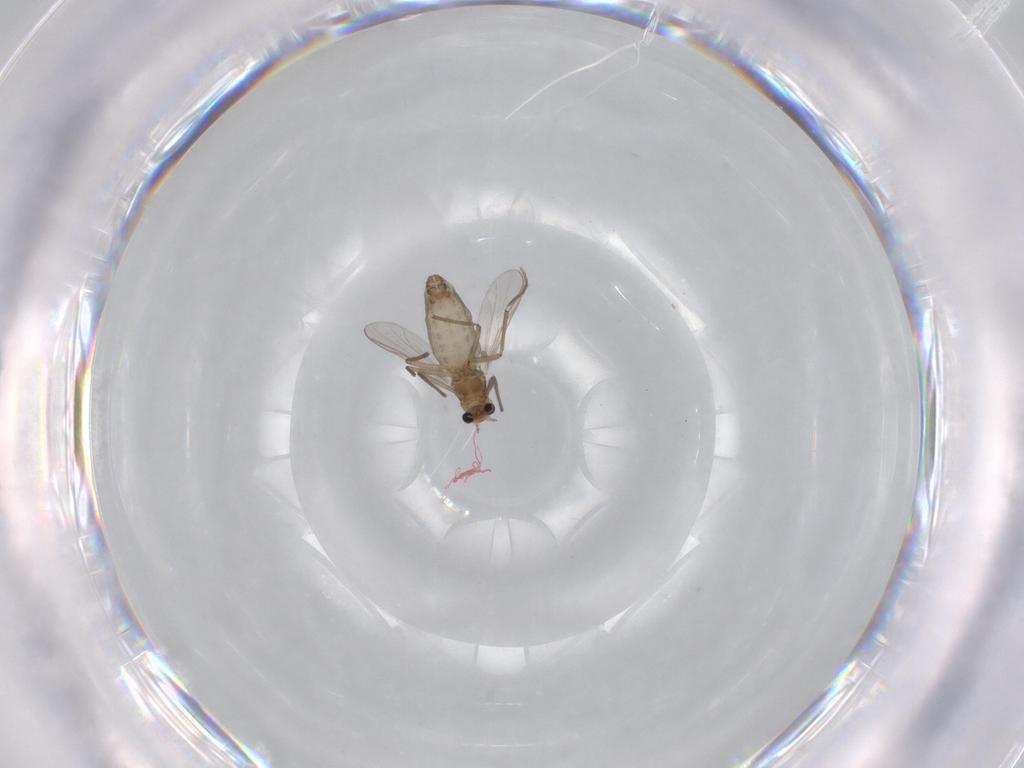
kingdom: Animalia
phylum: Arthropoda
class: Insecta
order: Diptera
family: Chironomidae
